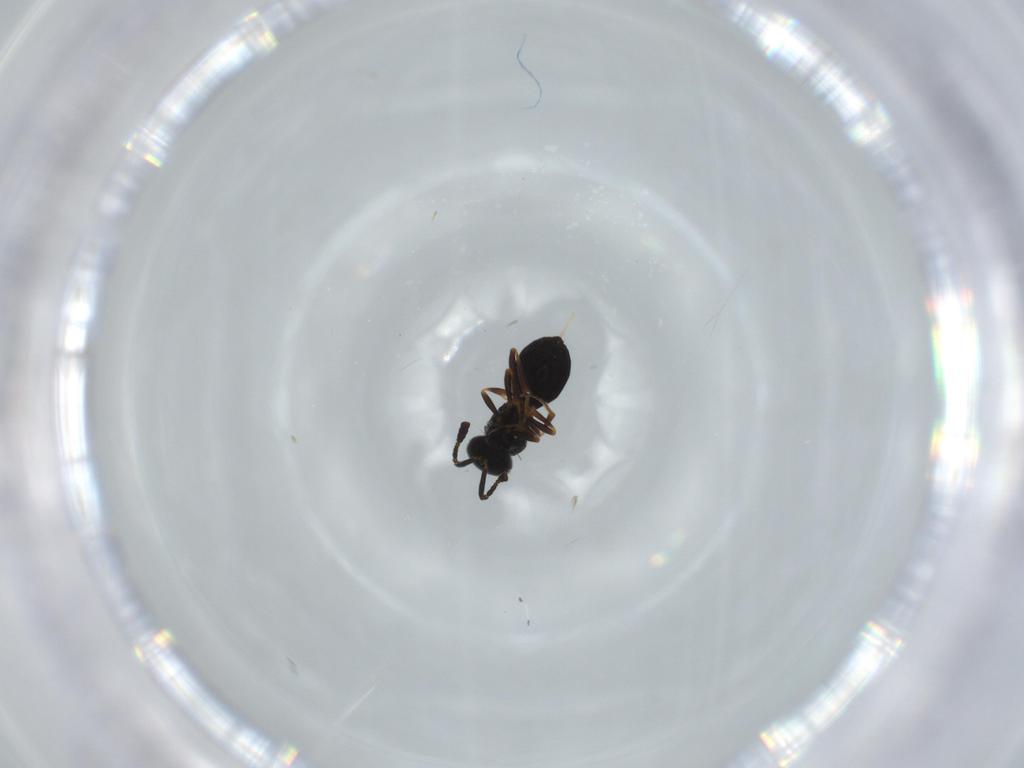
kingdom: Animalia
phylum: Arthropoda
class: Insecta
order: Hymenoptera
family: Scelionidae
